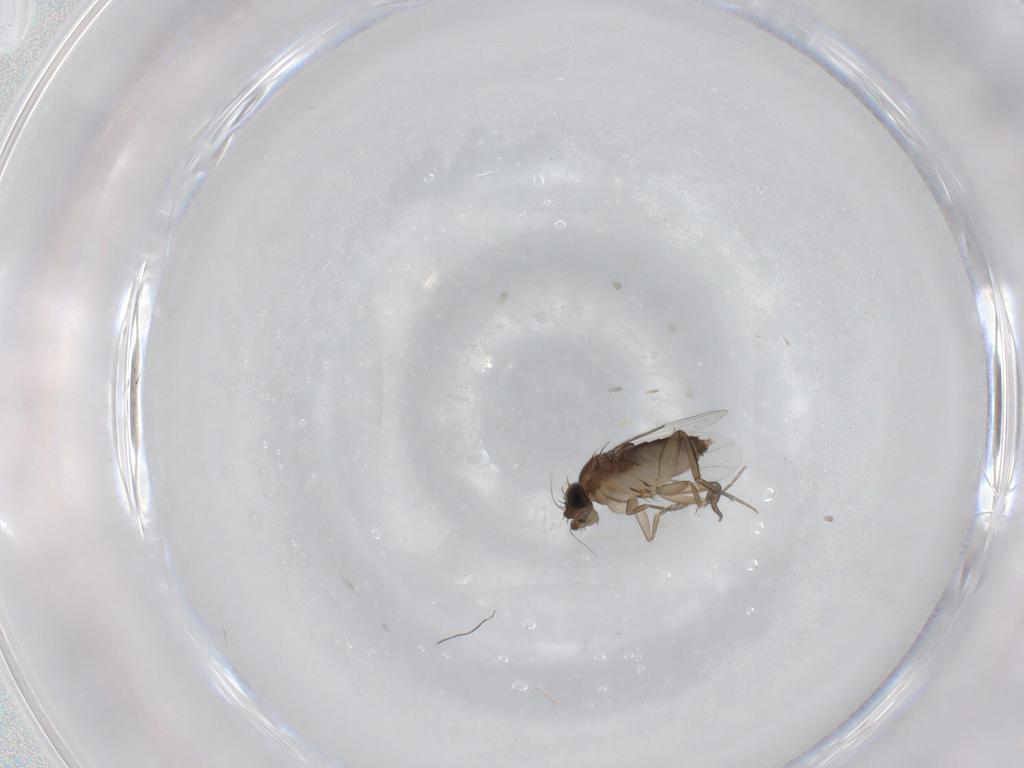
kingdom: Animalia
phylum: Arthropoda
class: Insecta
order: Diptera
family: Phoridae
